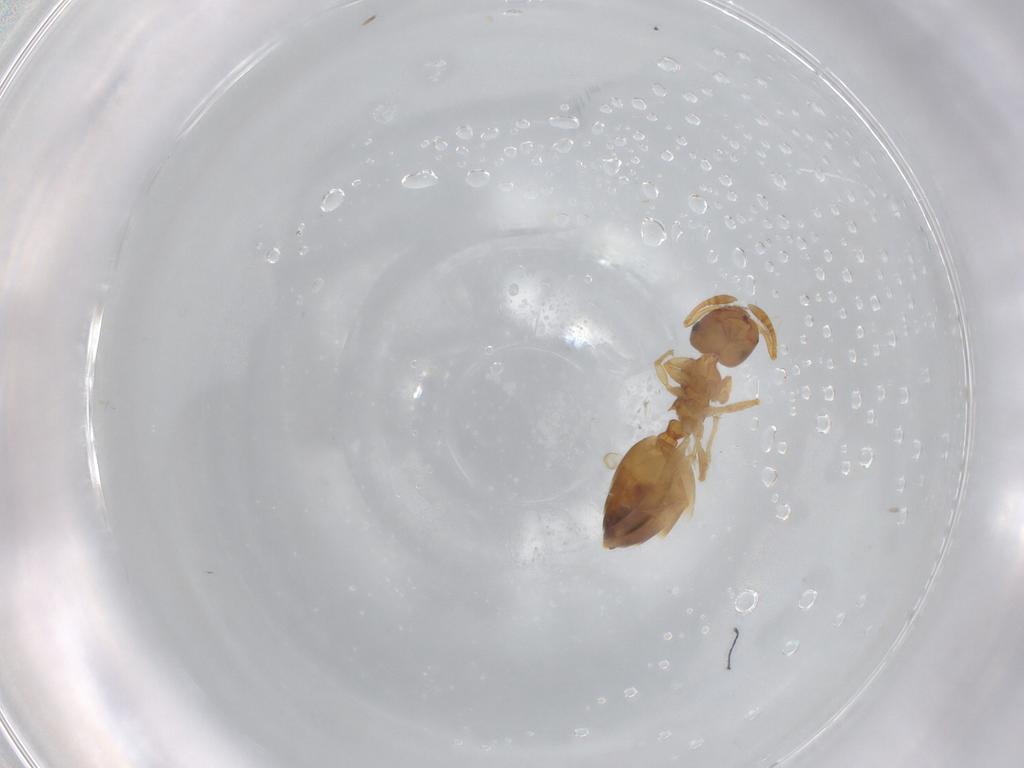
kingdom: Animalia
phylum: Arthropoda
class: Insecta
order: Hymenoptera
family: Formicidae
